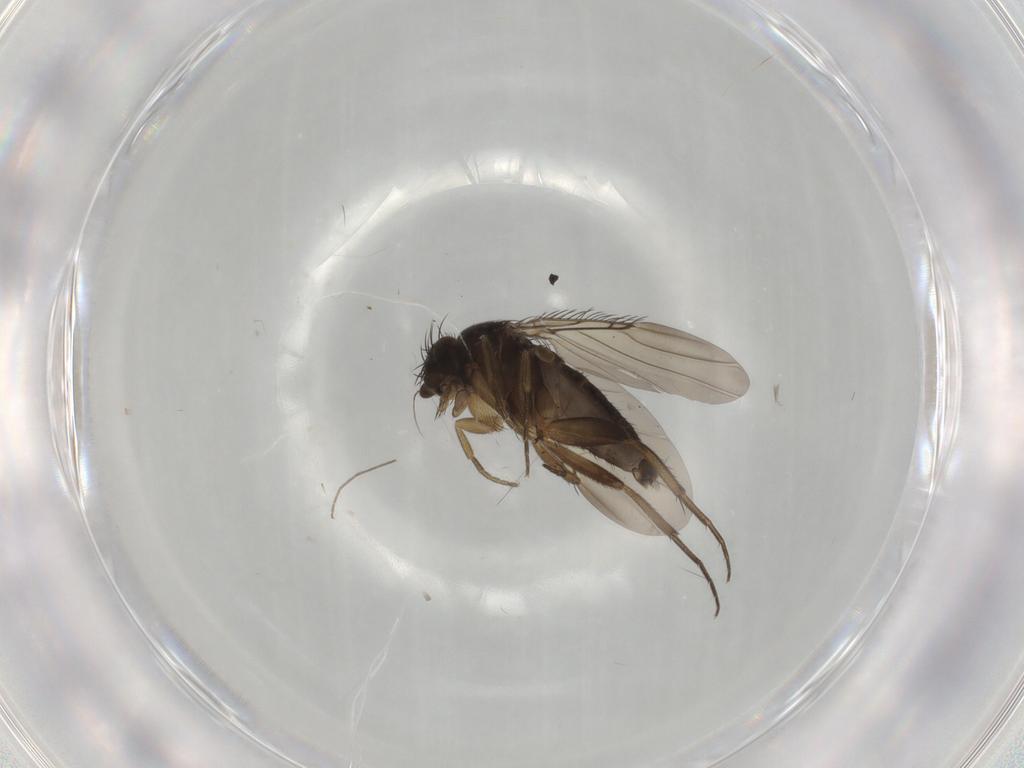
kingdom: Animalia
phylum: Arthropoda
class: Insecta
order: Diptera
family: Phoridae
